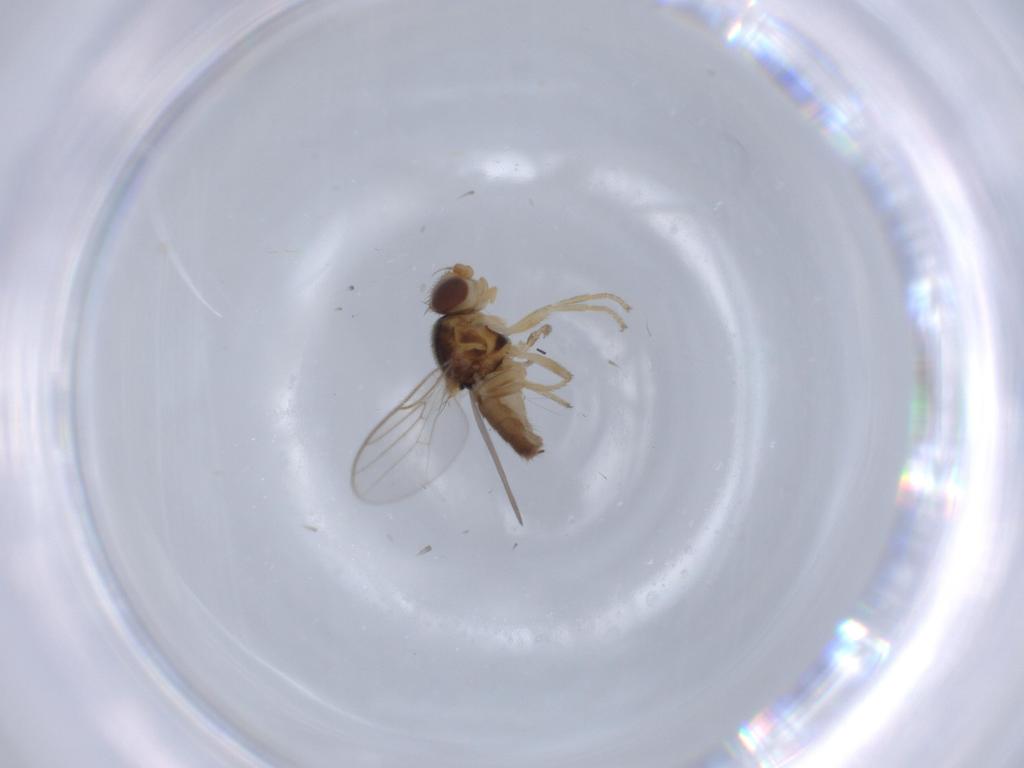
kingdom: Animalia
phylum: Arthropoda
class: Insecta
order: Diptera
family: Chloropidae
